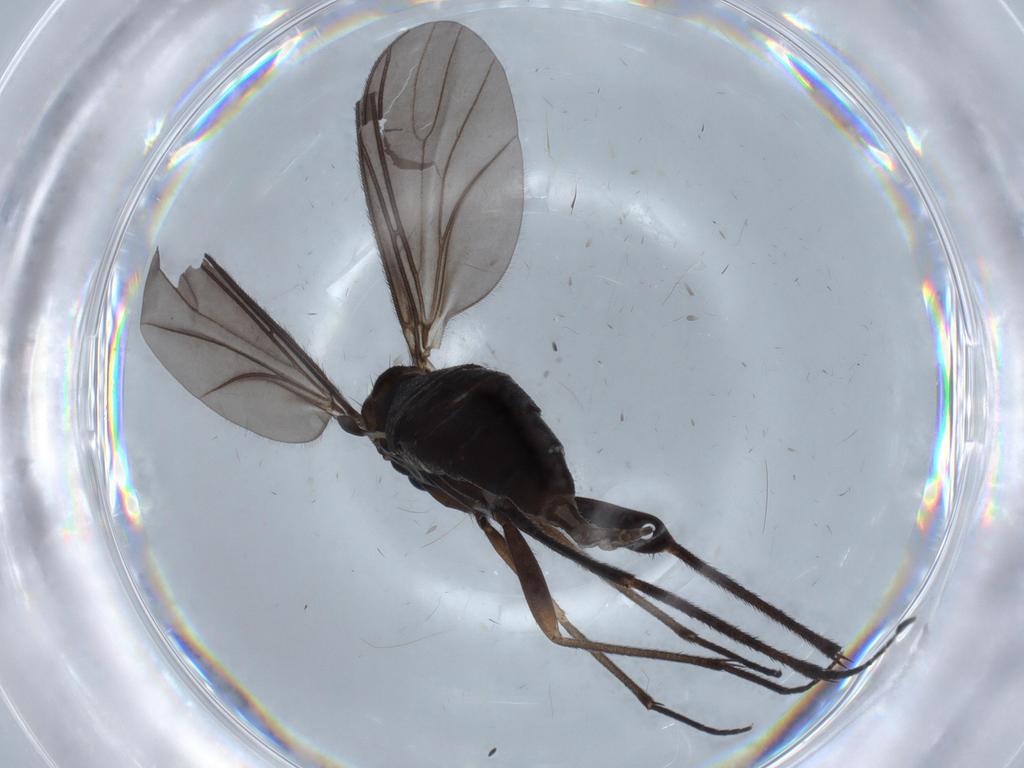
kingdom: Animalia
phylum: Arthropoda
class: Insecta
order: Diptera
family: Sciaridae
